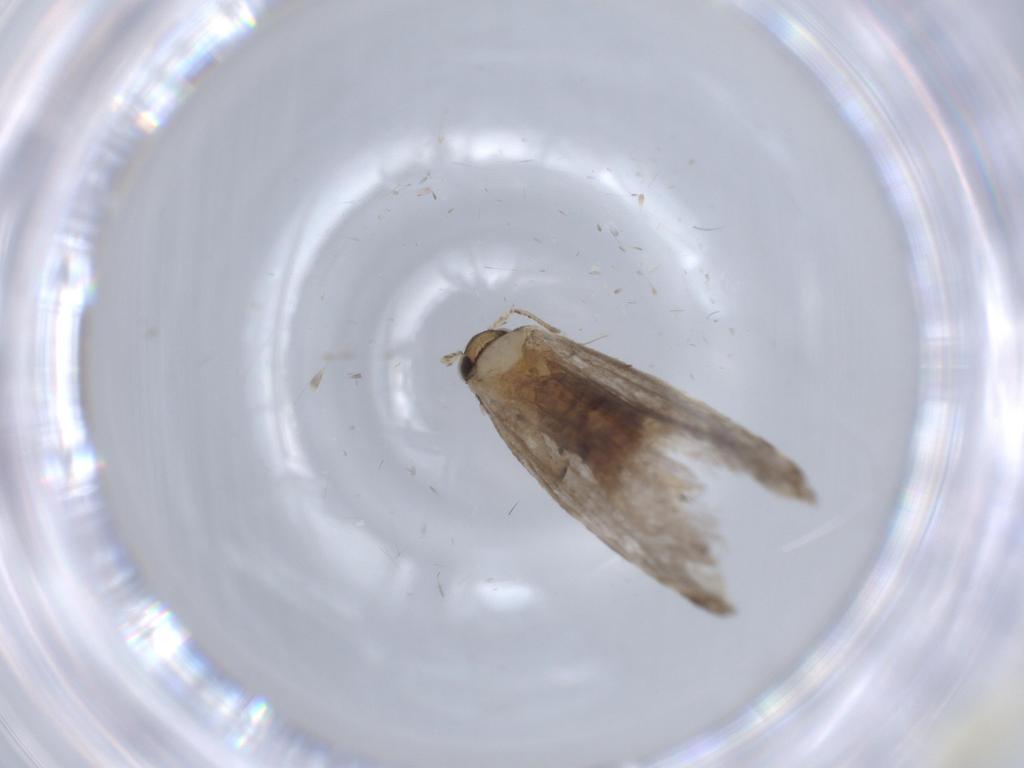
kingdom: Animalia
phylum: Arthropoda
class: Insecta
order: Lepidoptera
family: Tineidae
